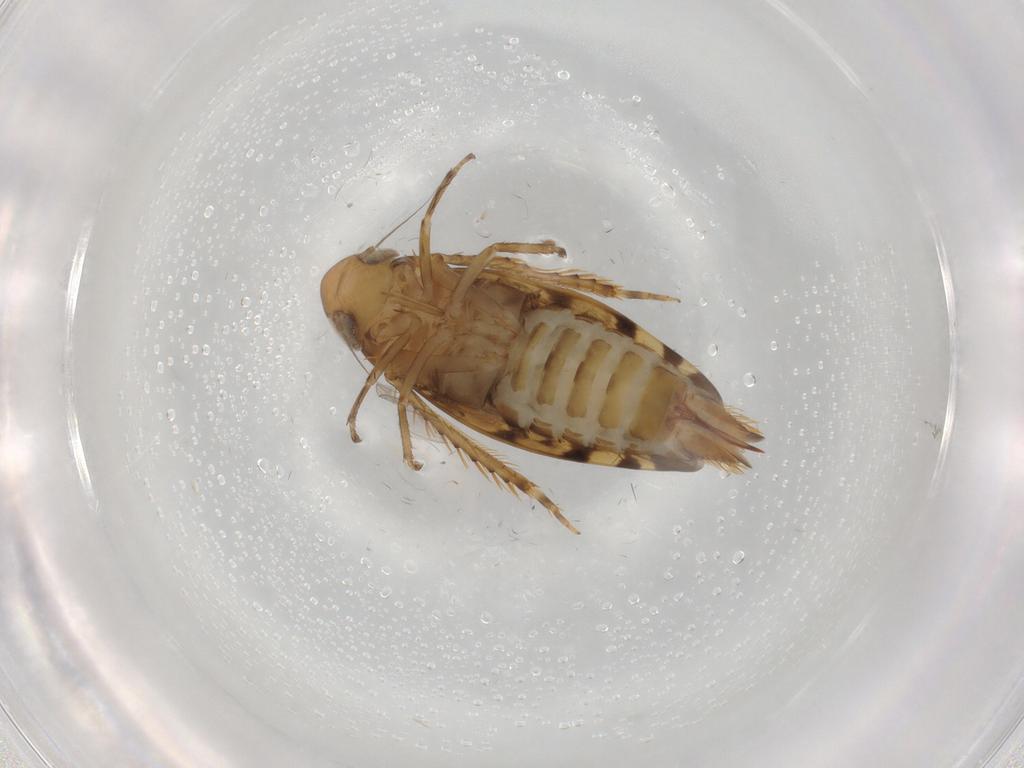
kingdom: Animalia
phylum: Arthropoda
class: Insecta
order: Hemiptera
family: Cicadellidae
